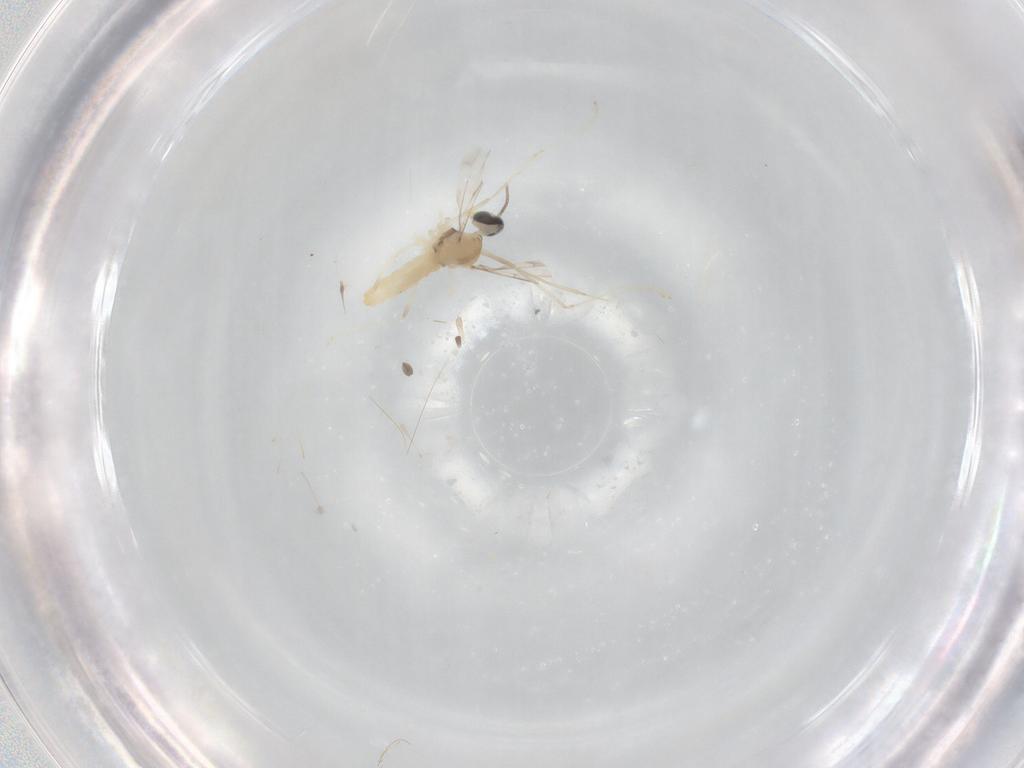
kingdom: Animalia
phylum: Arthropoda
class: Insecta
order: Diptera
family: Cecidomyiidae
